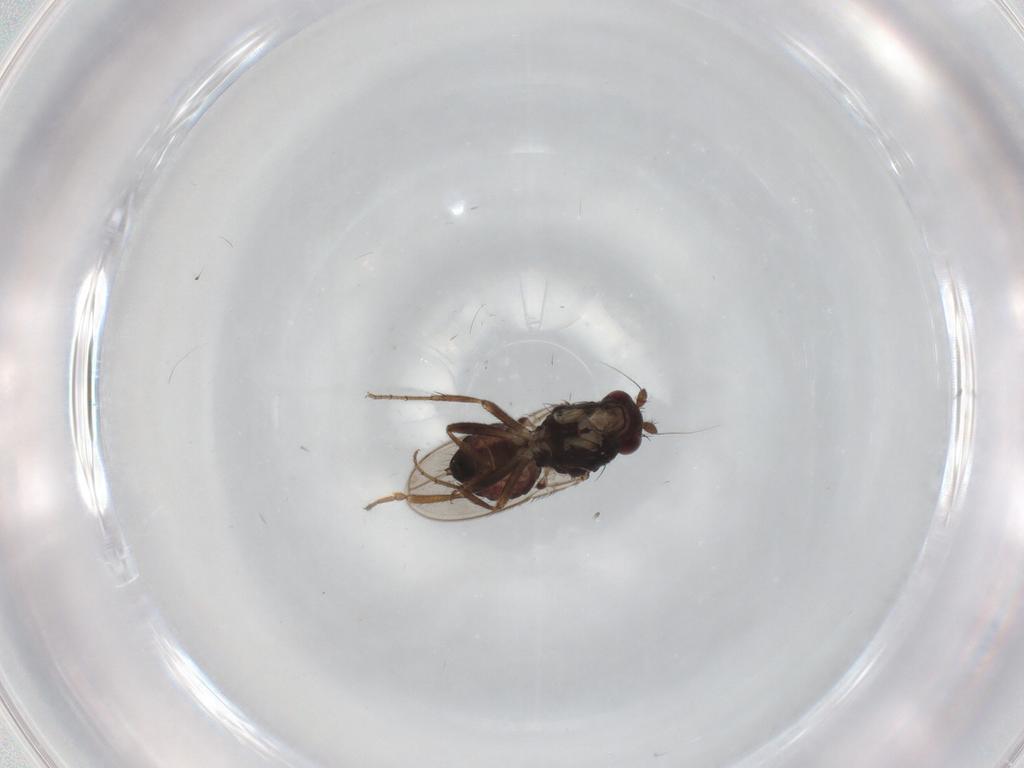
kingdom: Animalia
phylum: Arthropoda
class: Insecta
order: Diptera
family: Sphaeroceridae
